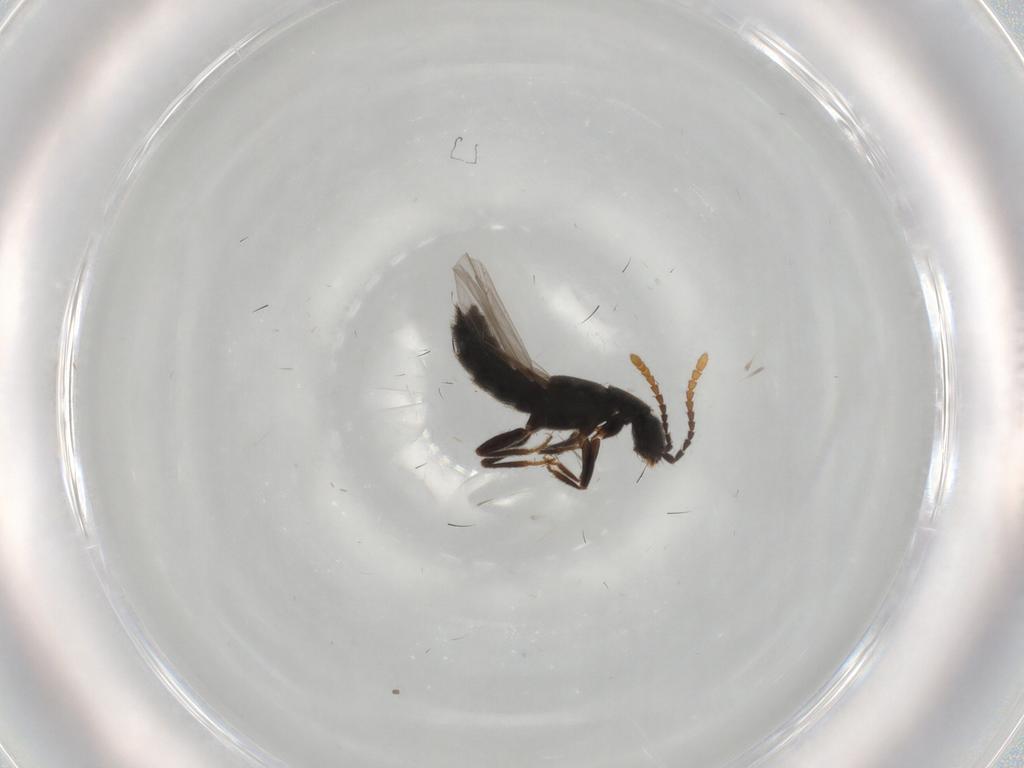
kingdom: Animalia
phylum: Arthropoda
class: Insecta
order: Coleoptera
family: Staphylinidae
